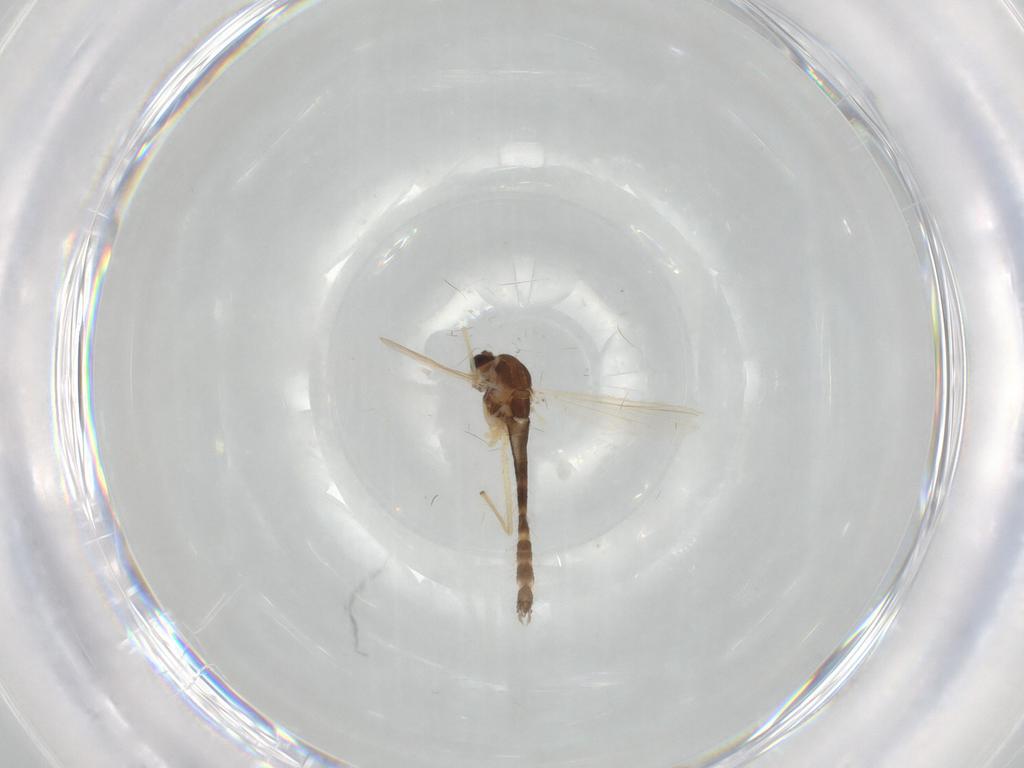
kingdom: Animalia
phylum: Arthropoda
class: Insecta
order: Diptera
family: Chironomidae
